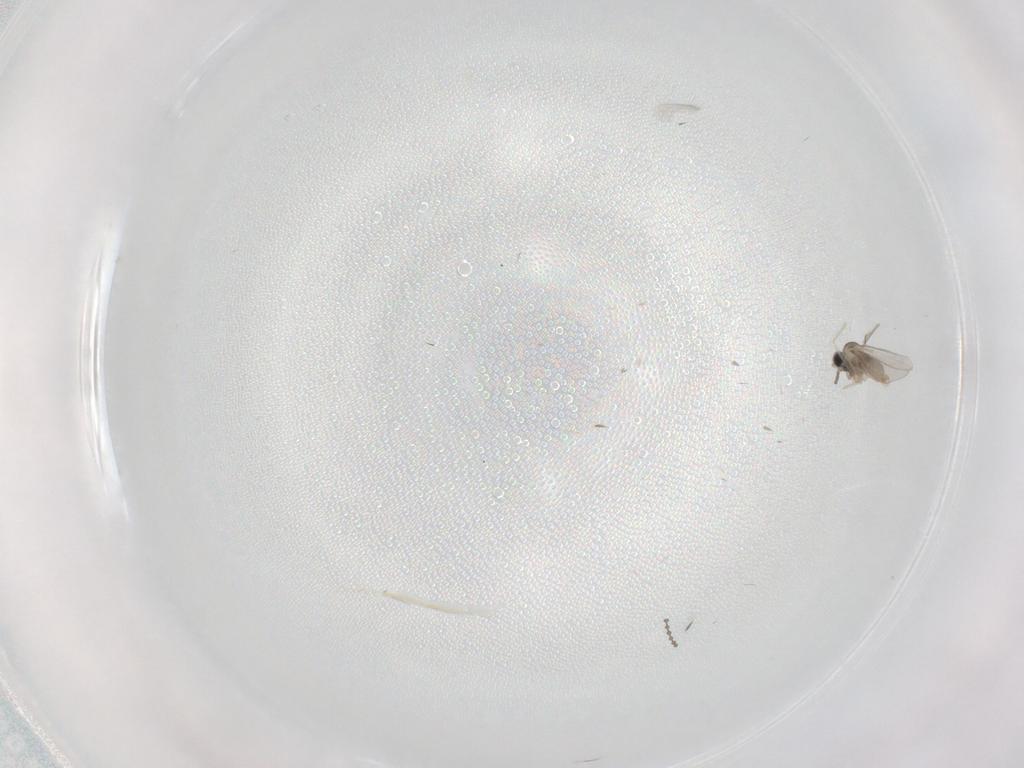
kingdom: Animalia
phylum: Arthropoda
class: Insecta
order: Diptera
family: Cecidomyiidae
